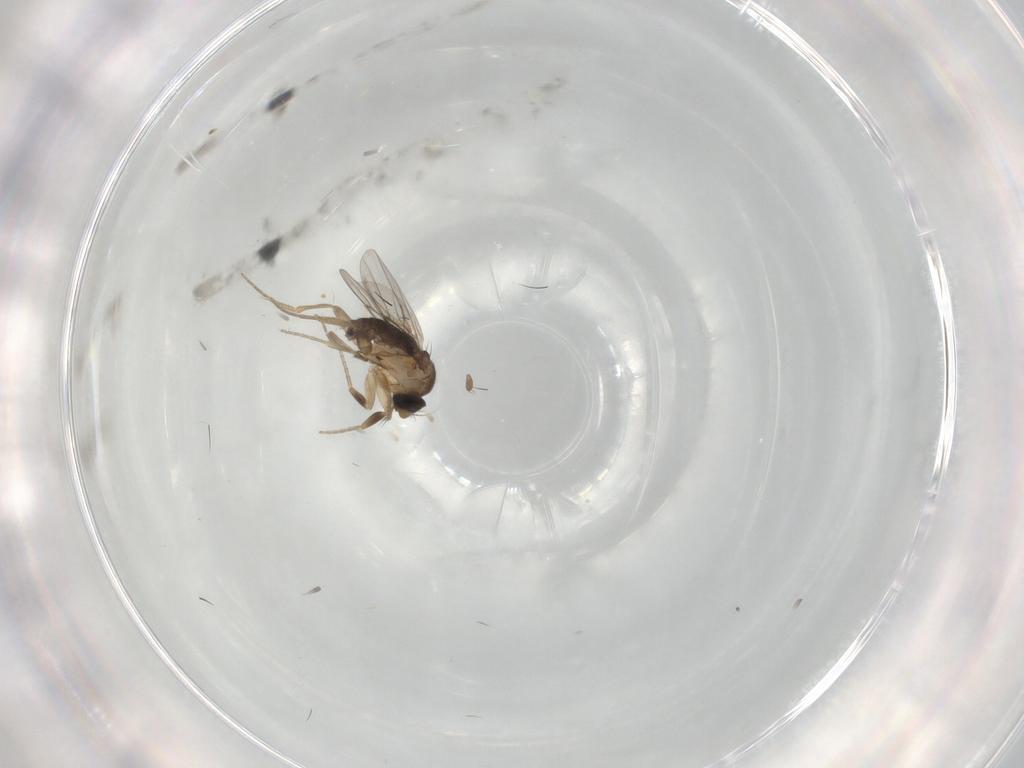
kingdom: Animalia
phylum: Arthropoda
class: Insecta
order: Diptera
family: Phoridae
